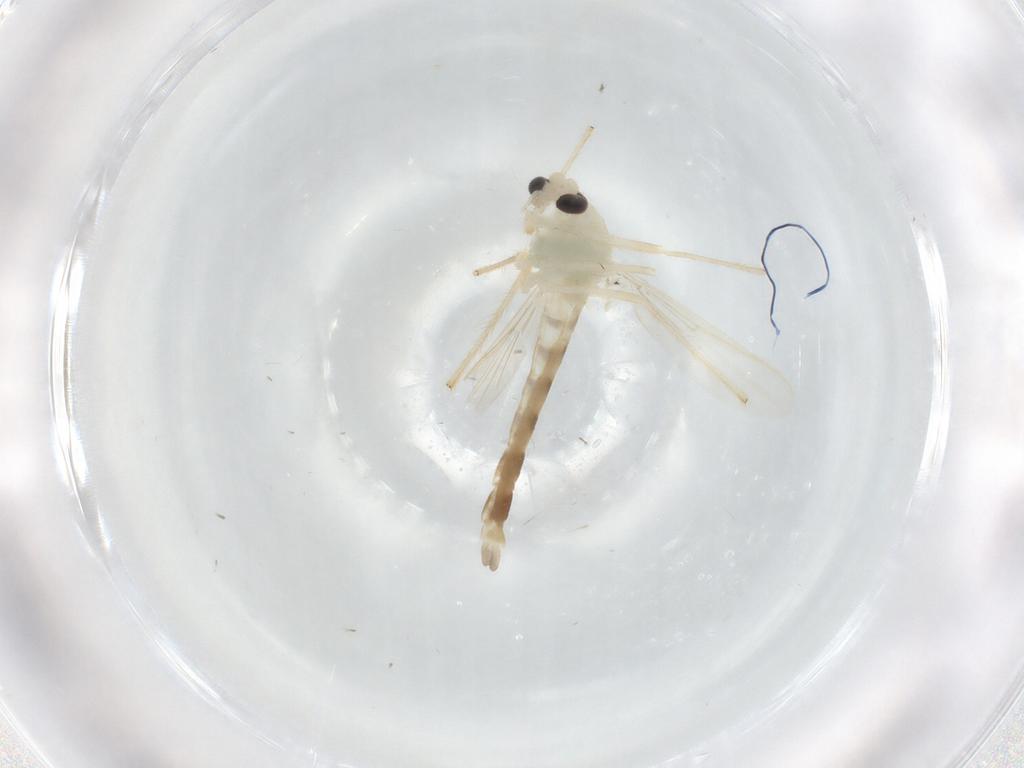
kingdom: Animalia
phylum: Arthropoda
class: Insecta
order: Diptera
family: Chironomidae
